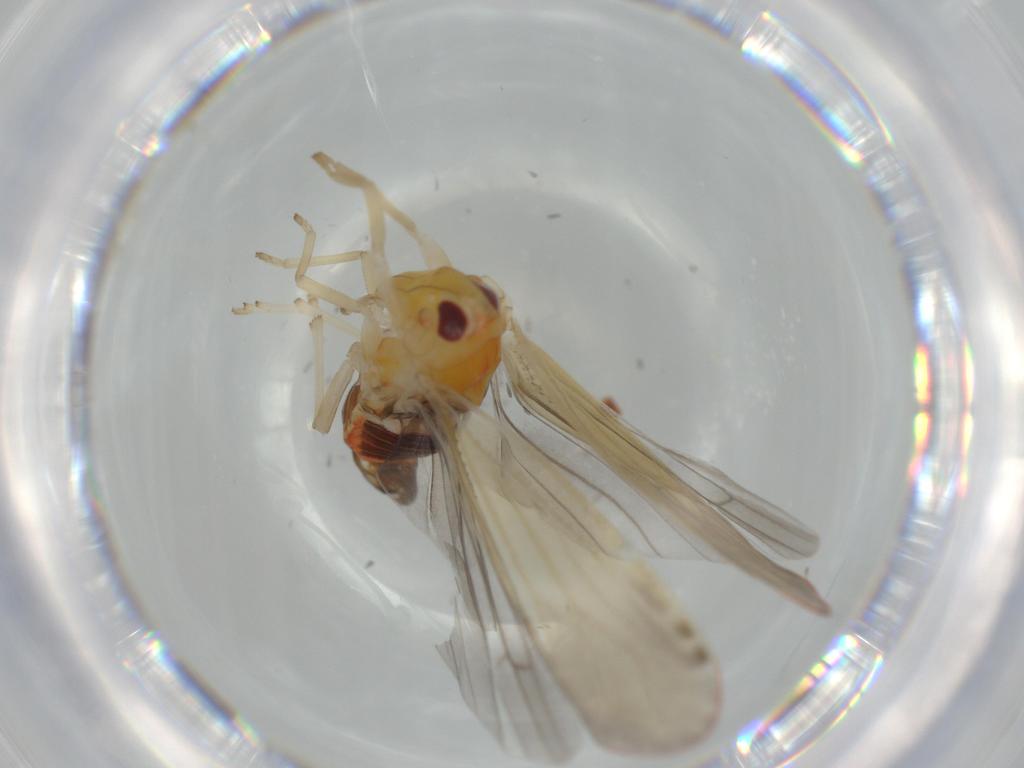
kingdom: Animalia
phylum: Arthropoda
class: Insecta
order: Hemiptera
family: Derbidae
